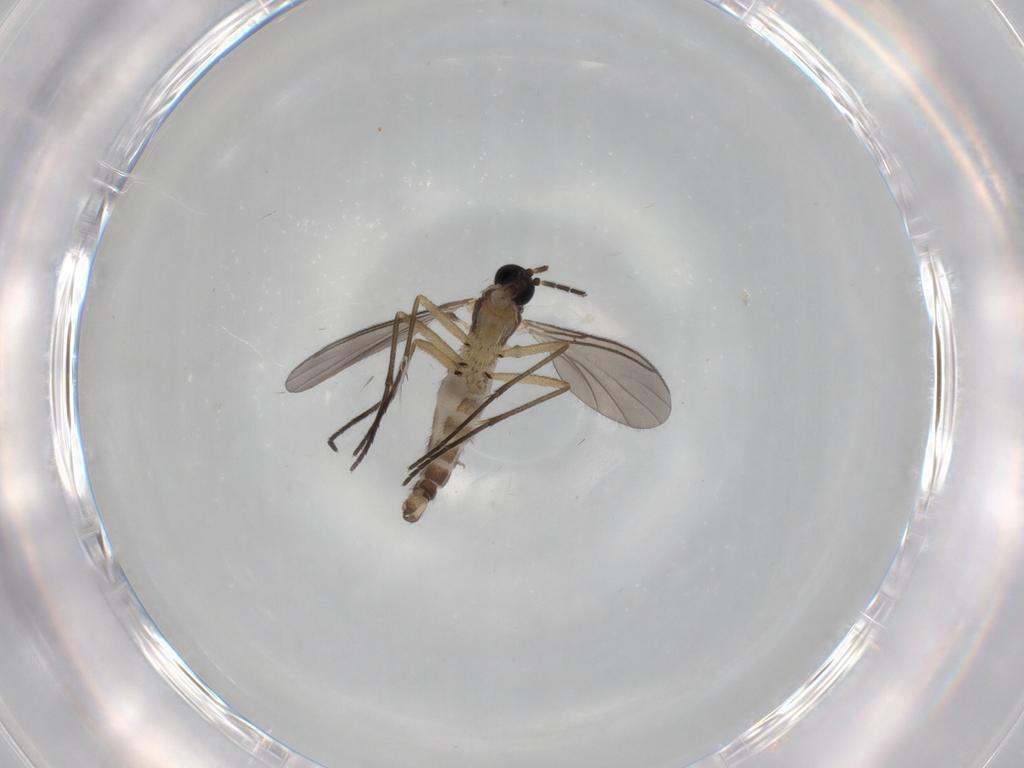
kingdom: Animalia
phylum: Arthropoda
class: Insecta
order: Diptera
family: Sciaridae
